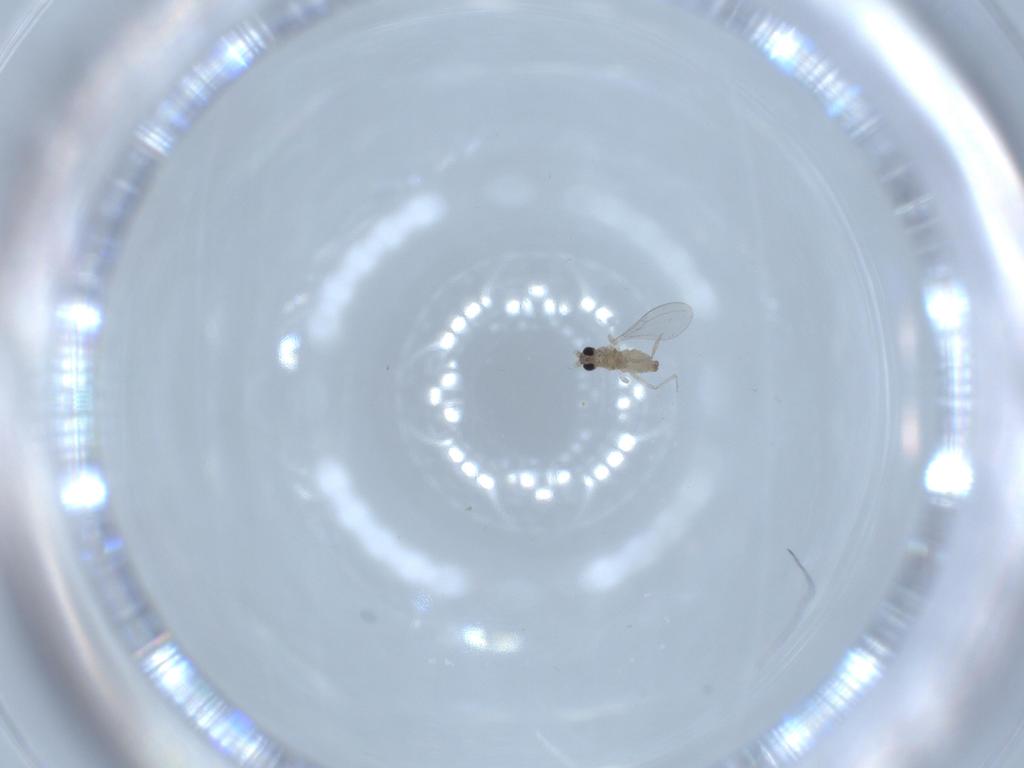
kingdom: Animalia
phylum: Arthropoda
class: Insecta
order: Diptera
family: Cecidomyiidae
